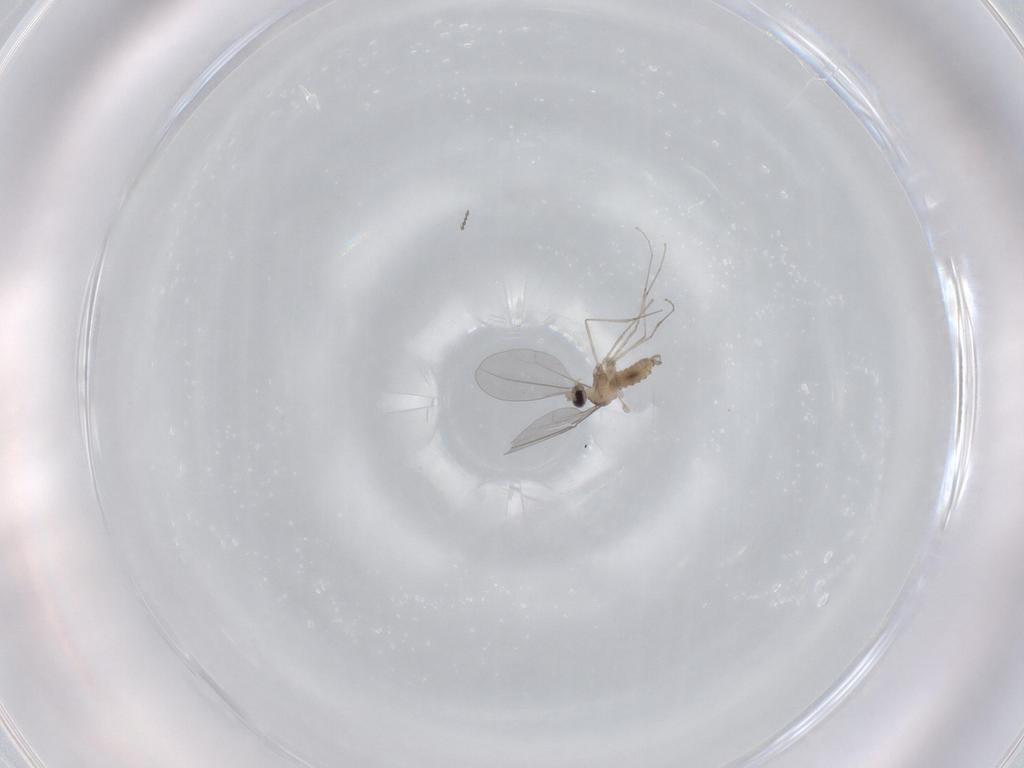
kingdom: Animalia
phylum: Arthropoda
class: Insecta
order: Diptera
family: Cecidomyiidae
